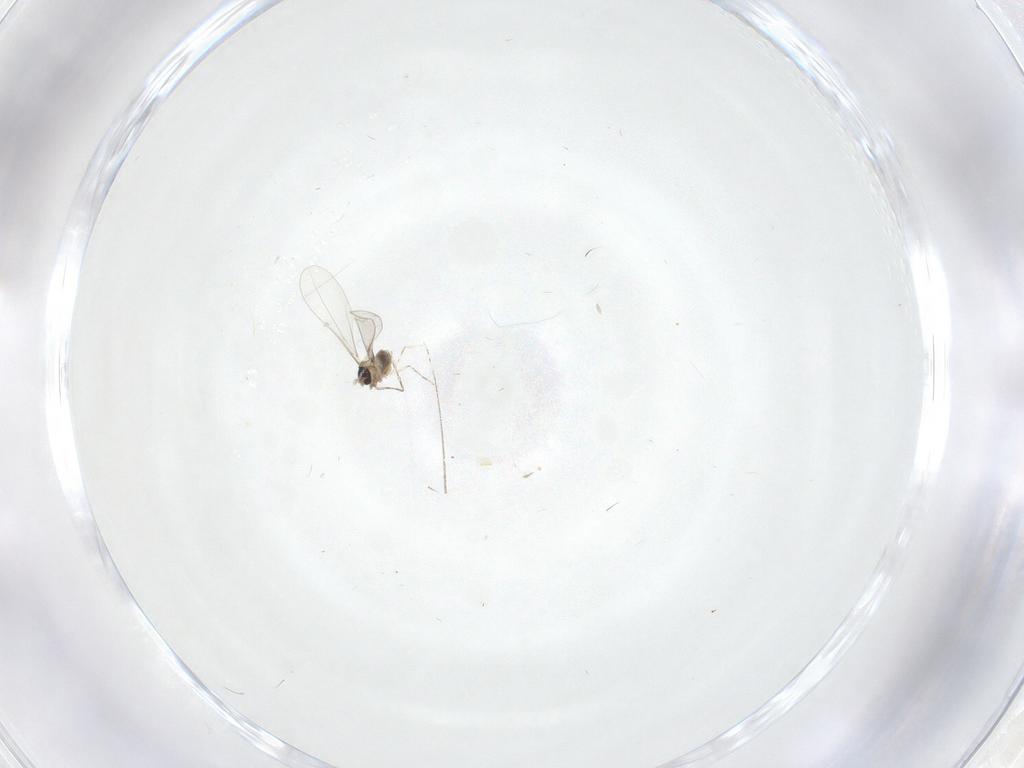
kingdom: Animalia
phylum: Arthropoda
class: Insecta
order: Diptera
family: Cecidomyiidae
